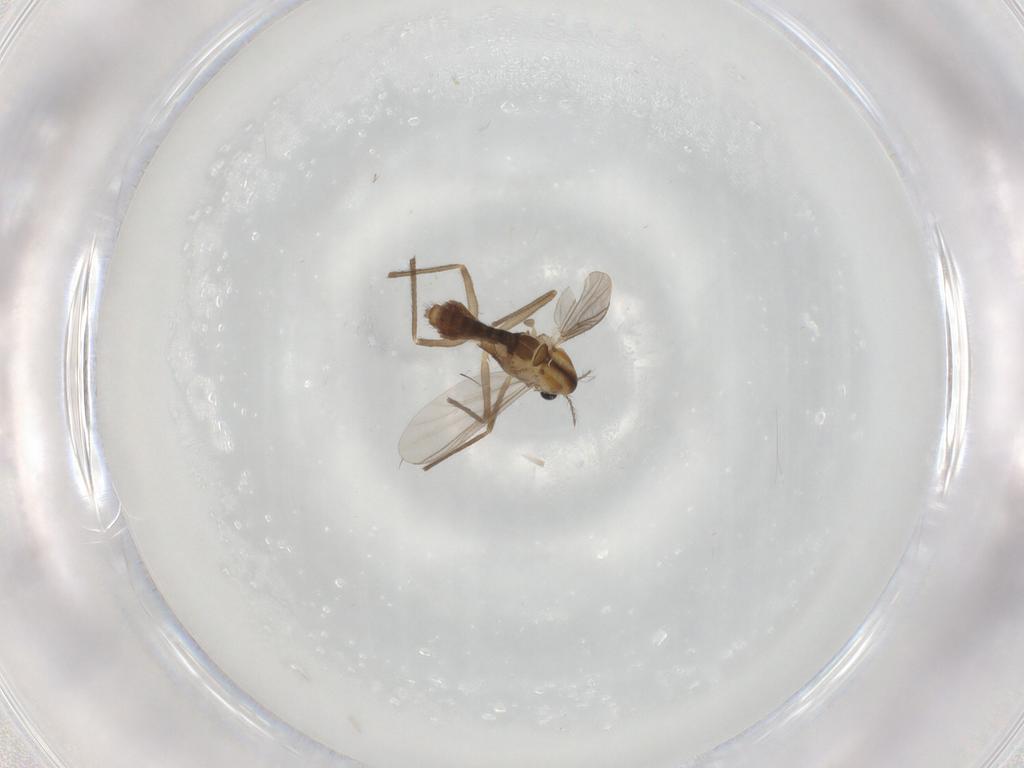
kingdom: Animalia
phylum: Arthropoda
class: Insecta
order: Diptera
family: Chironomidae
